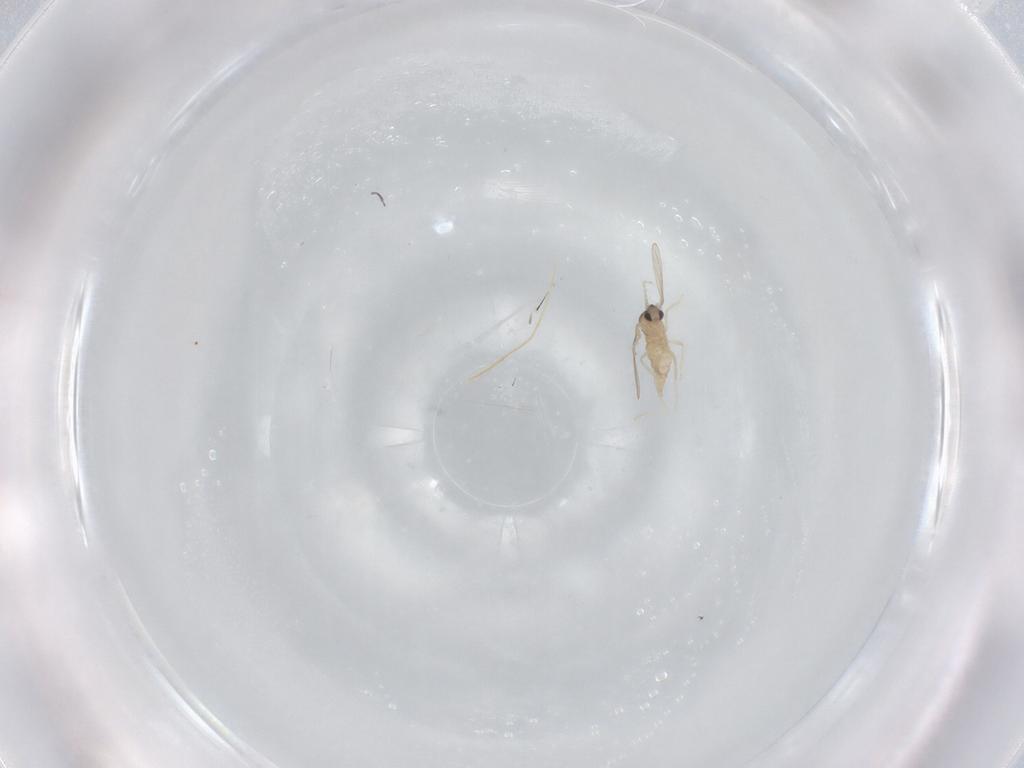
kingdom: Animalia
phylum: Arthropoda
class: Insecta
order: Diptera
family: Cecidomyiidae
